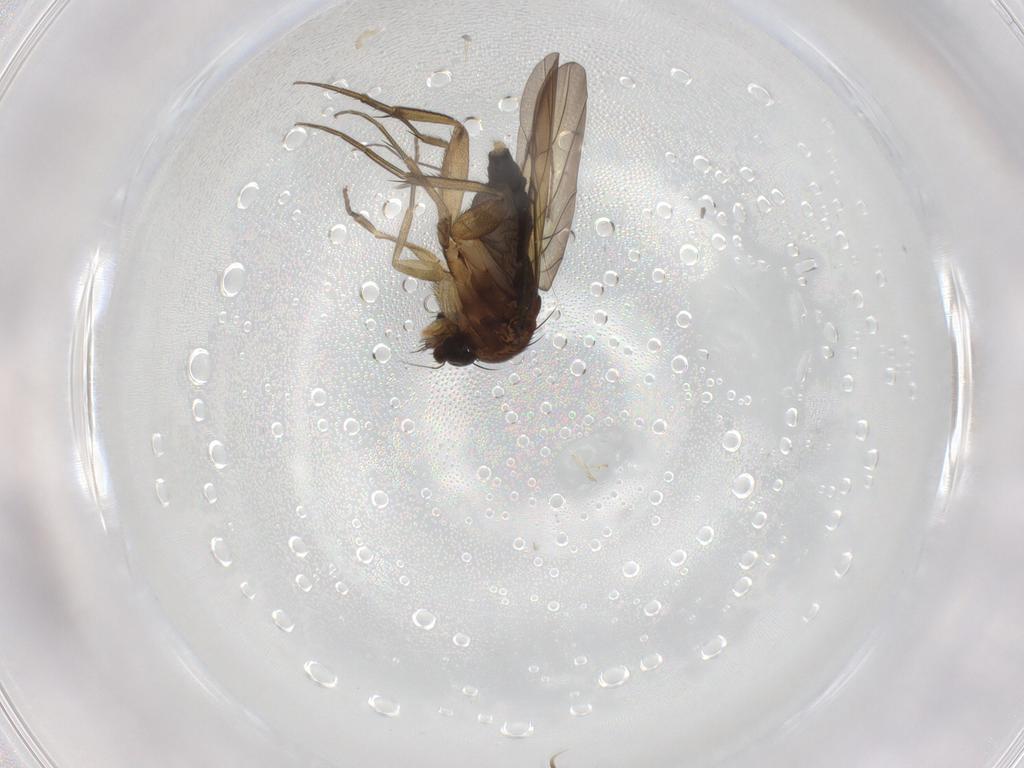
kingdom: Animalia
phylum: Arthropoda
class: Insecta
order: Diptera
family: Phoridae
